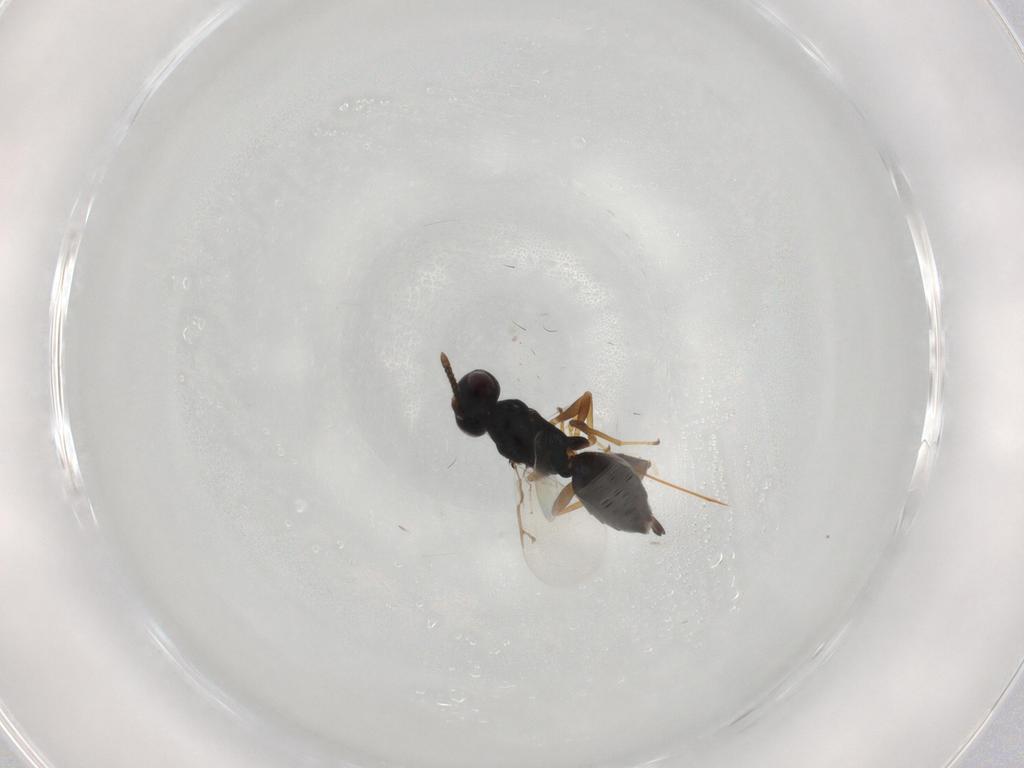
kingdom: Animalia
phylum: Arthropoda
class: Insecta
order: Hymenoptera
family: Pteromalidae
